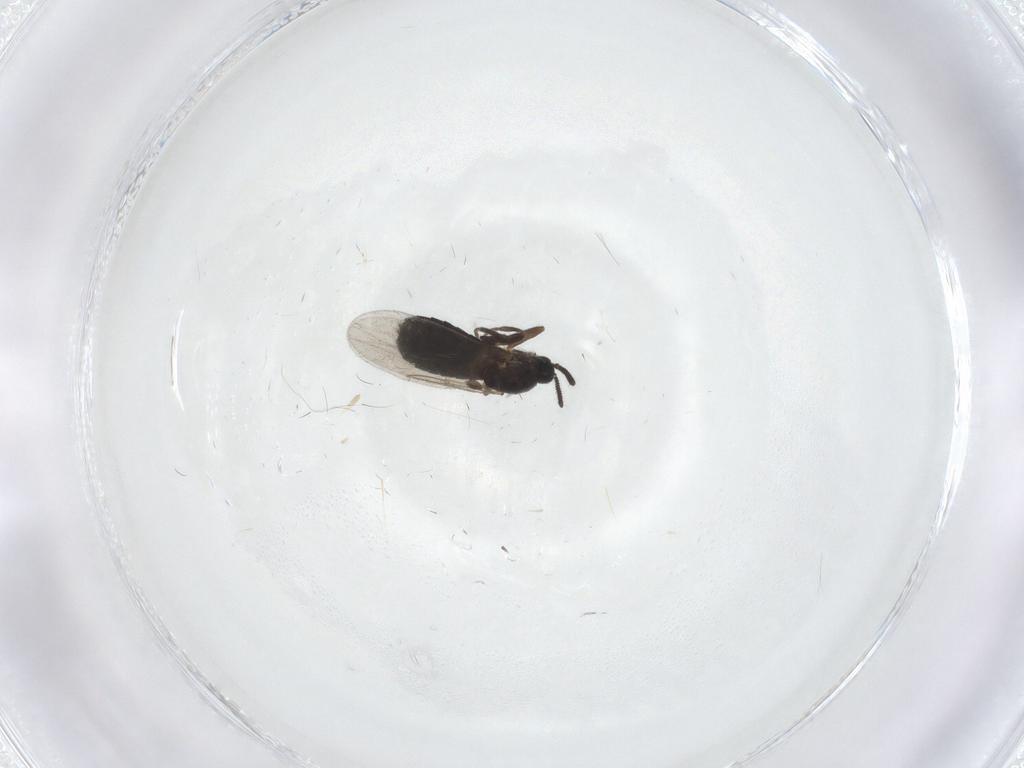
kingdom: Animalia
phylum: Arthropoda
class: Insecta
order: Diptera
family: Scatopsidae
